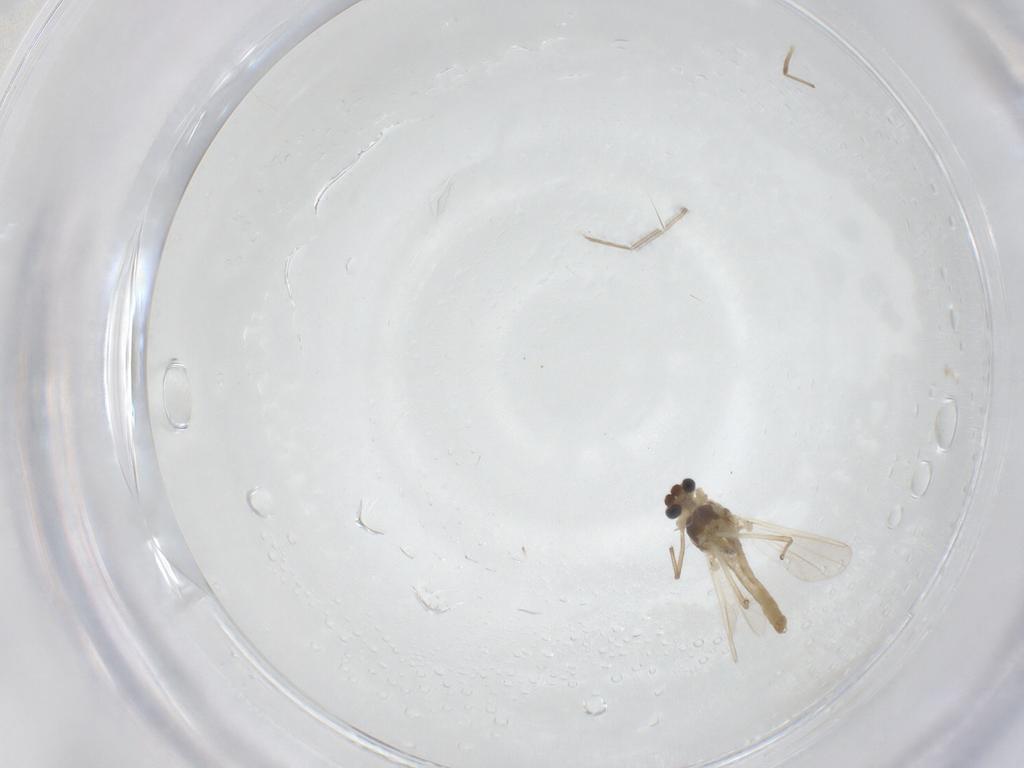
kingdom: Animalia
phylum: Arthropoda
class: Insecta
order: Diptera
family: Chironomidae
